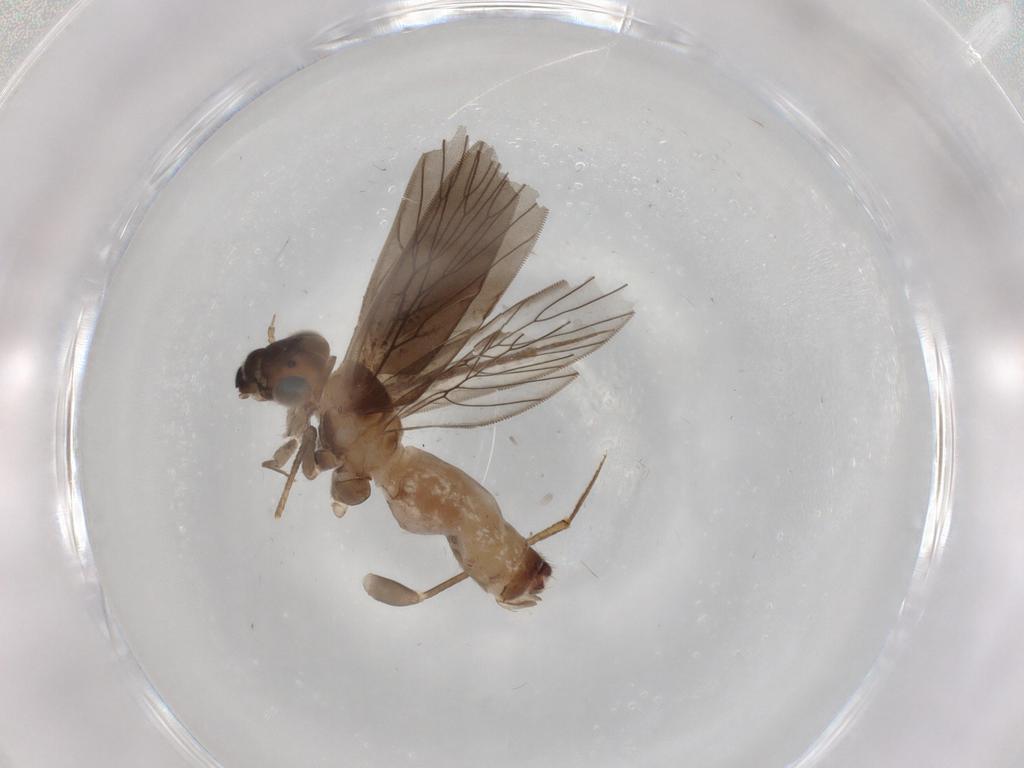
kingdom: Animalia
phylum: Arthropoda
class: Insecta
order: Psocodea
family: Lepidopsocidae
